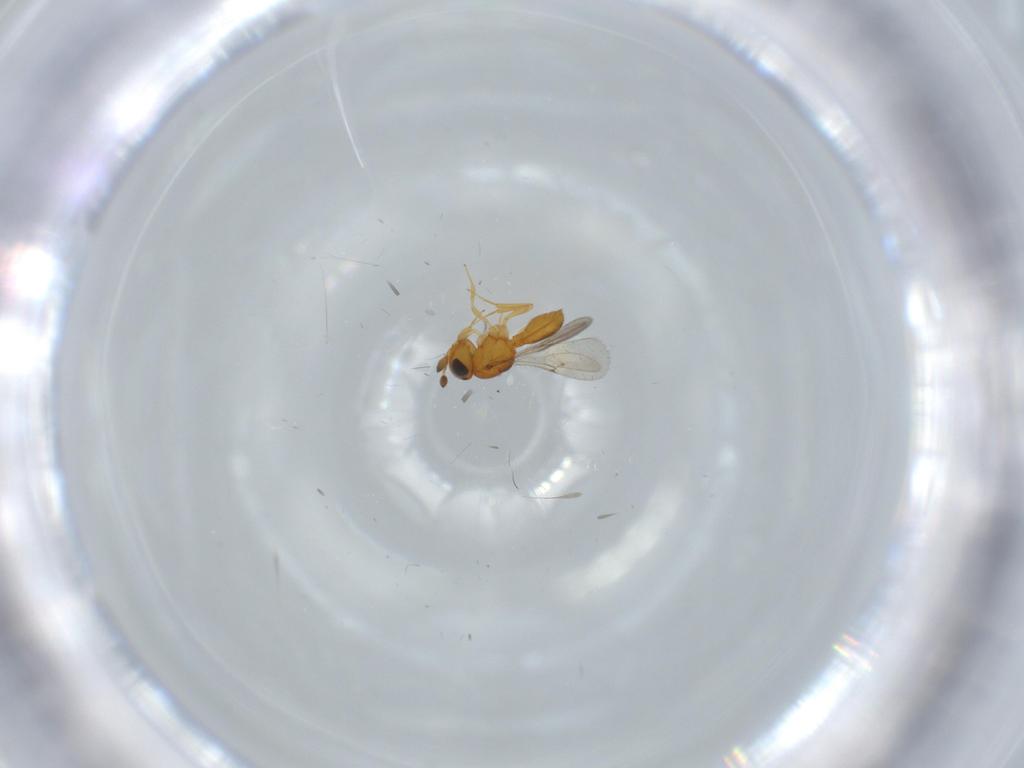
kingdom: Animalia
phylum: Arthropoda
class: Insecta
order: Hymenoptera
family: Scelionidae
